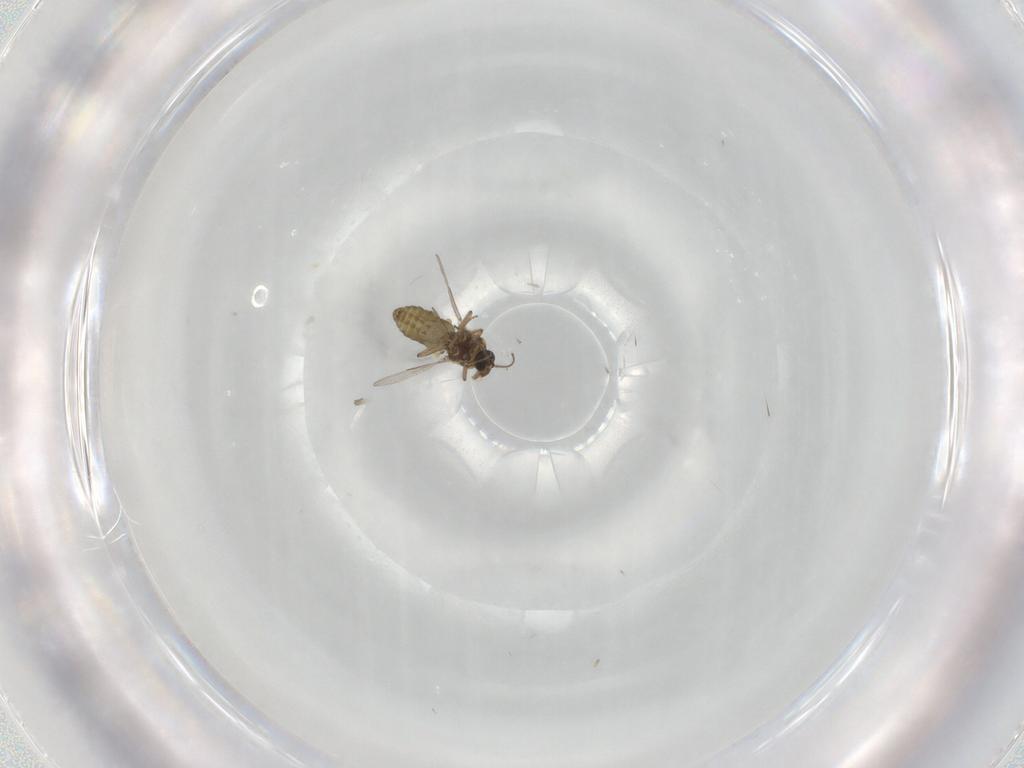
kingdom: Animalia
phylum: Arthropoda
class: Insecta
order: Diptera
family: Ceratopogonidae
